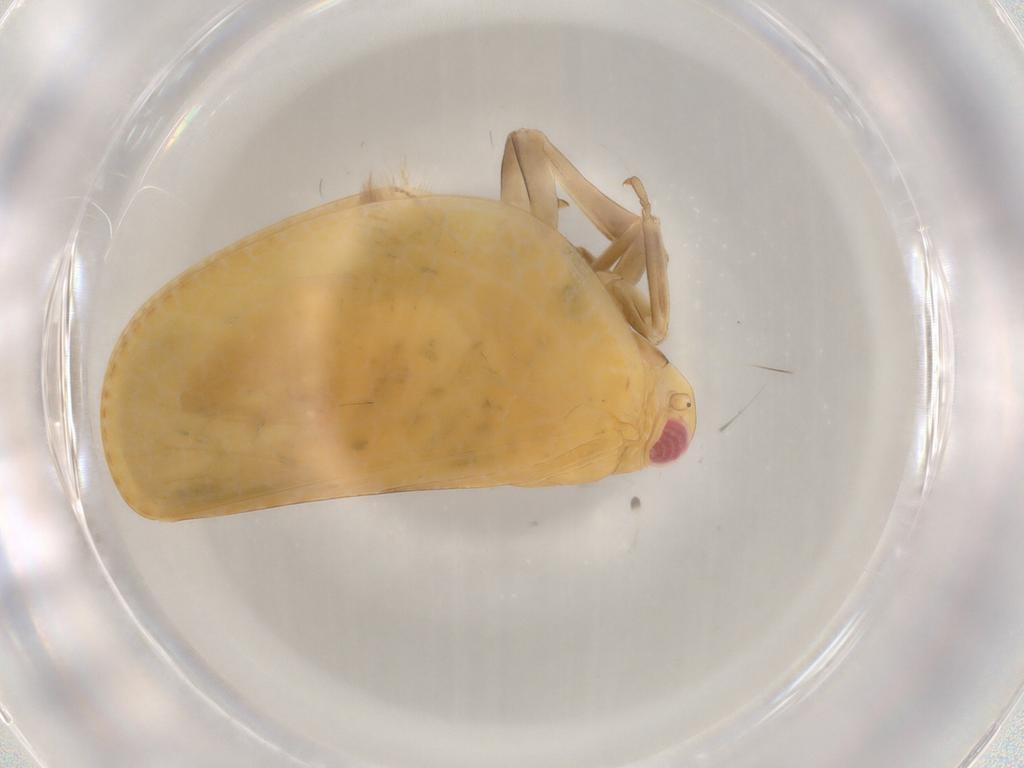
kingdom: Animalia
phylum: Arthropoda
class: Insecta
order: Hemiptera
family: Acanaloniidae
